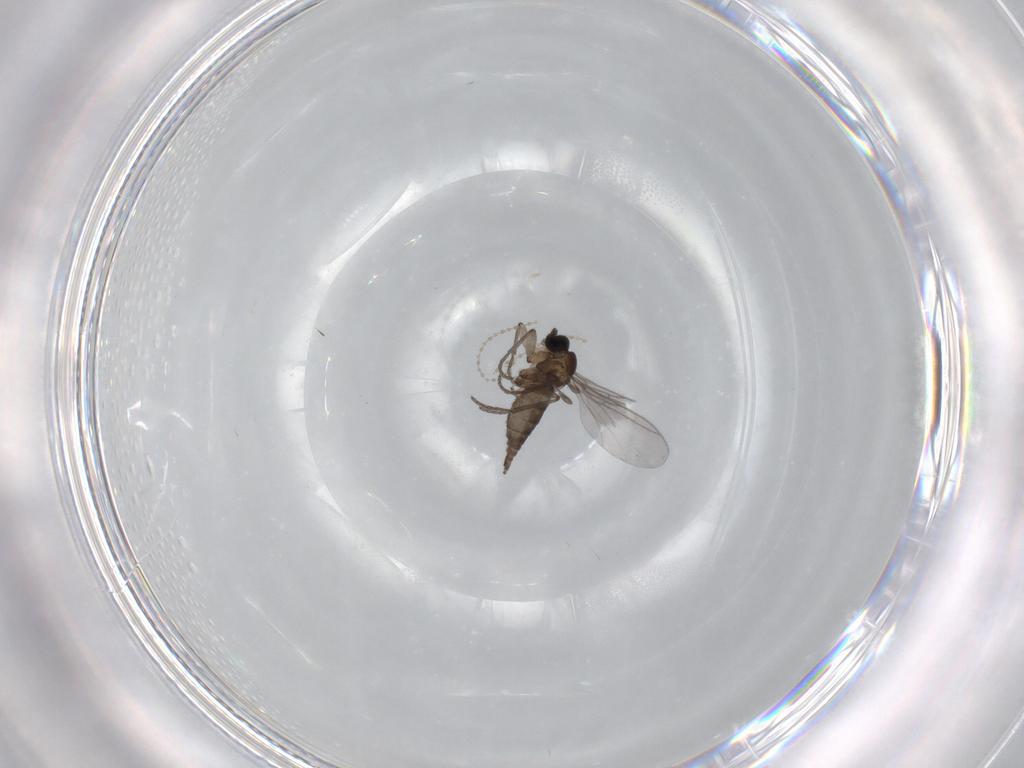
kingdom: Animalia
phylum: Arthropoda
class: Insecta
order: Diptera
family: Cecidomyiidae
